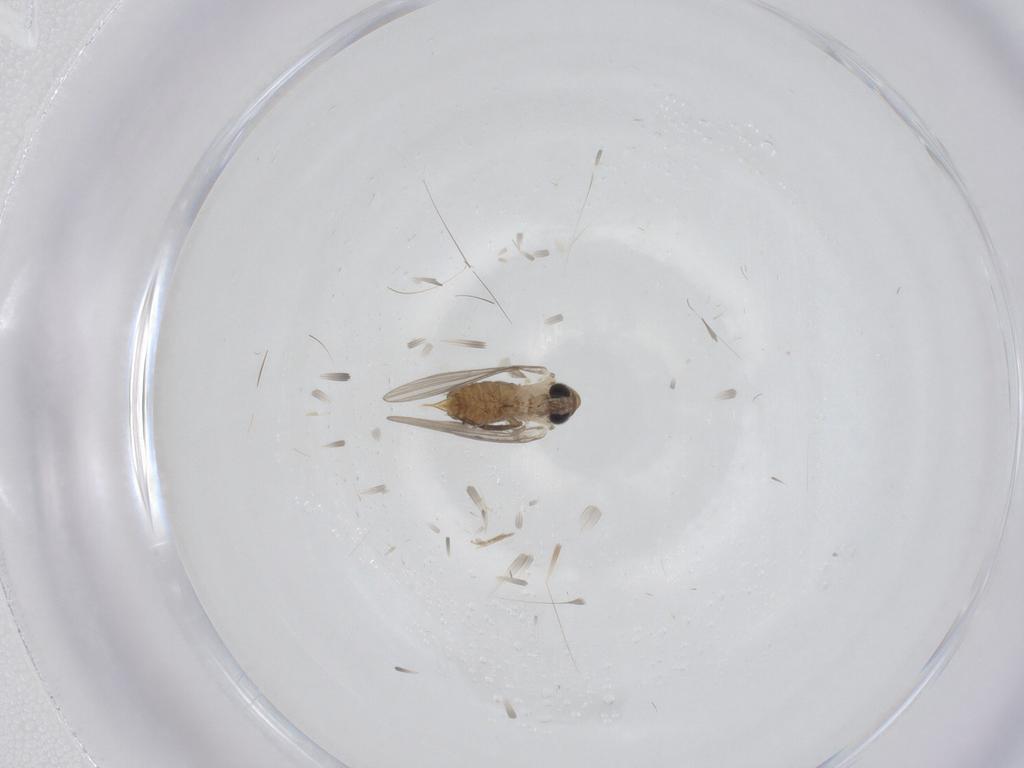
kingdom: Animalia
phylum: Arthropoda
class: Insecta
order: Diptera
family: Psychodidae
